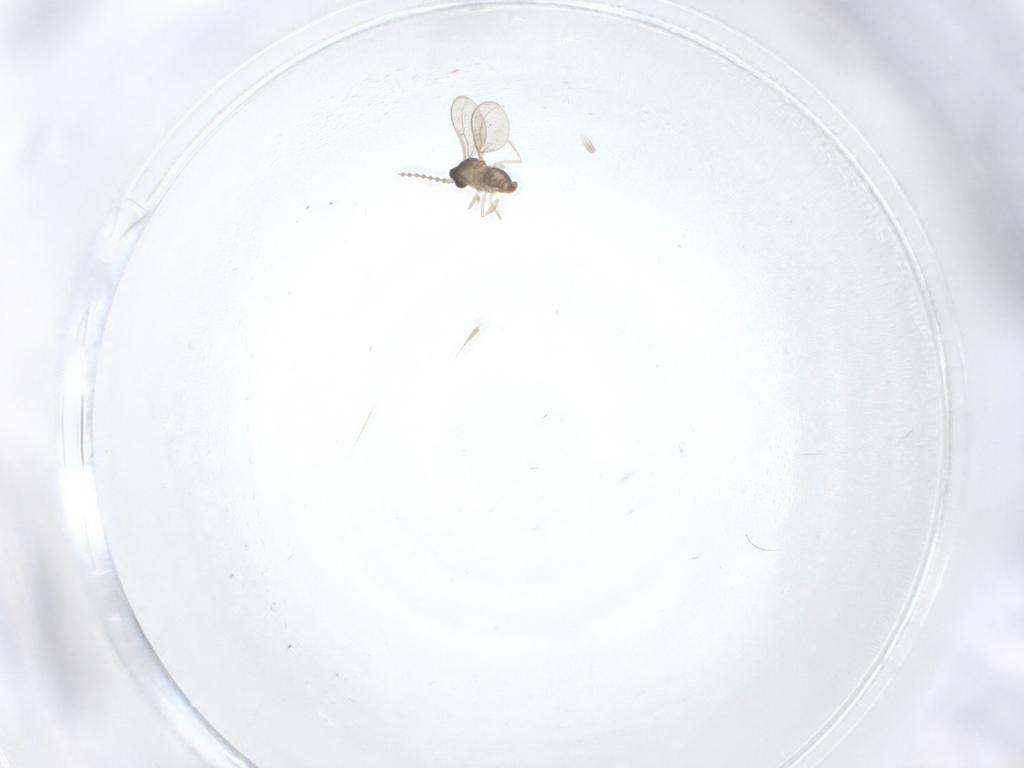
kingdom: Animalia
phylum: Arthropoda
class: Insecta
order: Diptera
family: Cecidomyiidae
